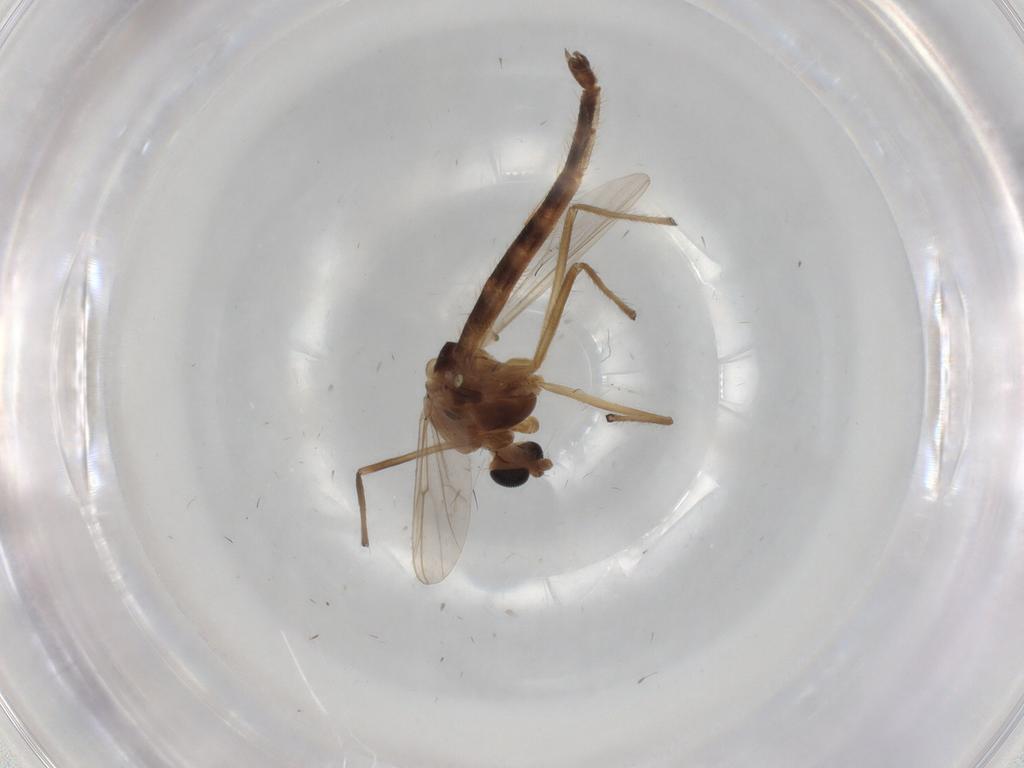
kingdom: Animalia
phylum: Arthropoda
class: Insecta
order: Diptera
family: Chironomidae
